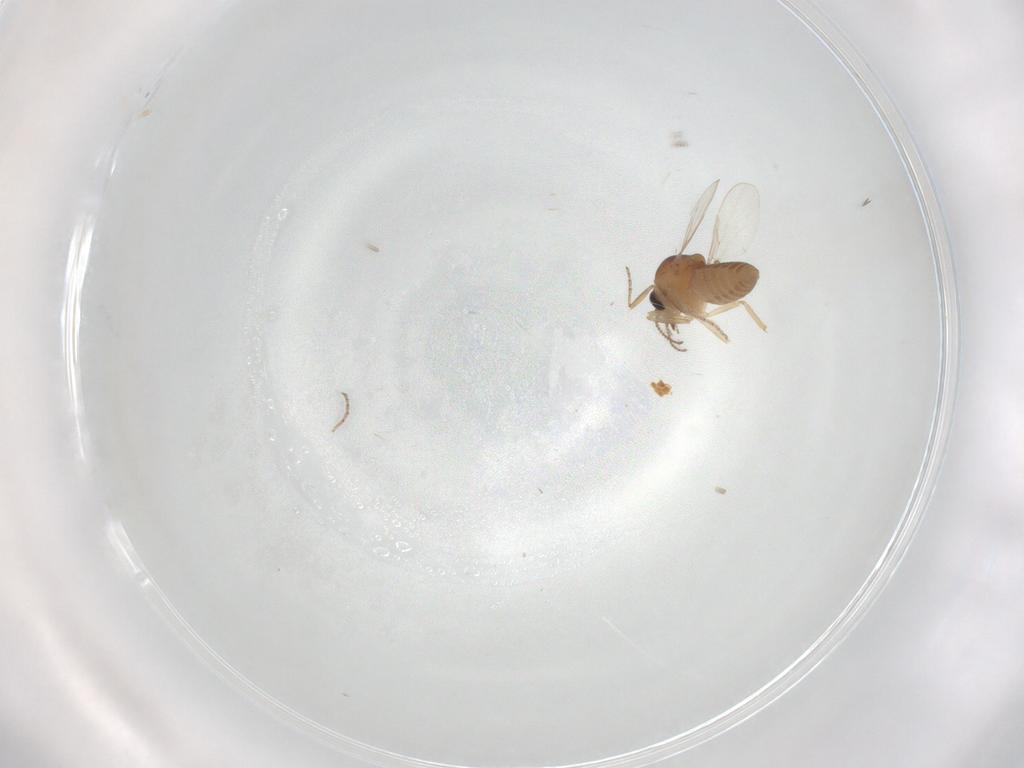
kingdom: Animalia
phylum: Arthropoda
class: Insecta
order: Diptera
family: Ceratopogonidae
